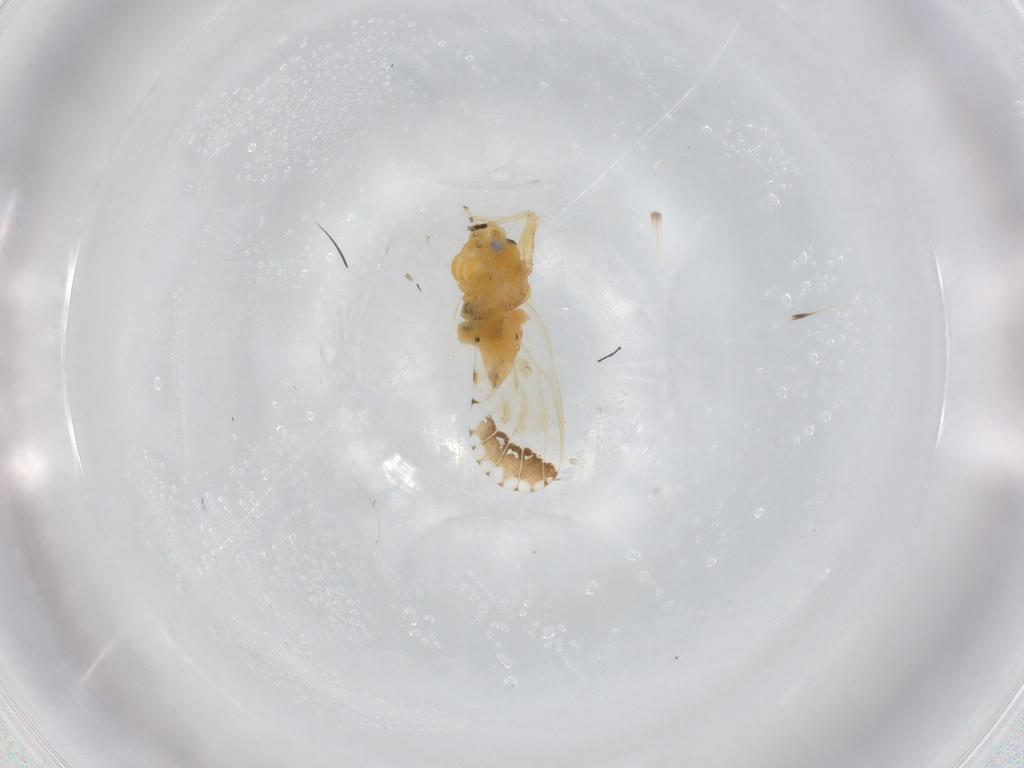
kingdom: Animalia
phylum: Arthropoda
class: Insecta
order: Hemiptera
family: Psyllidae
